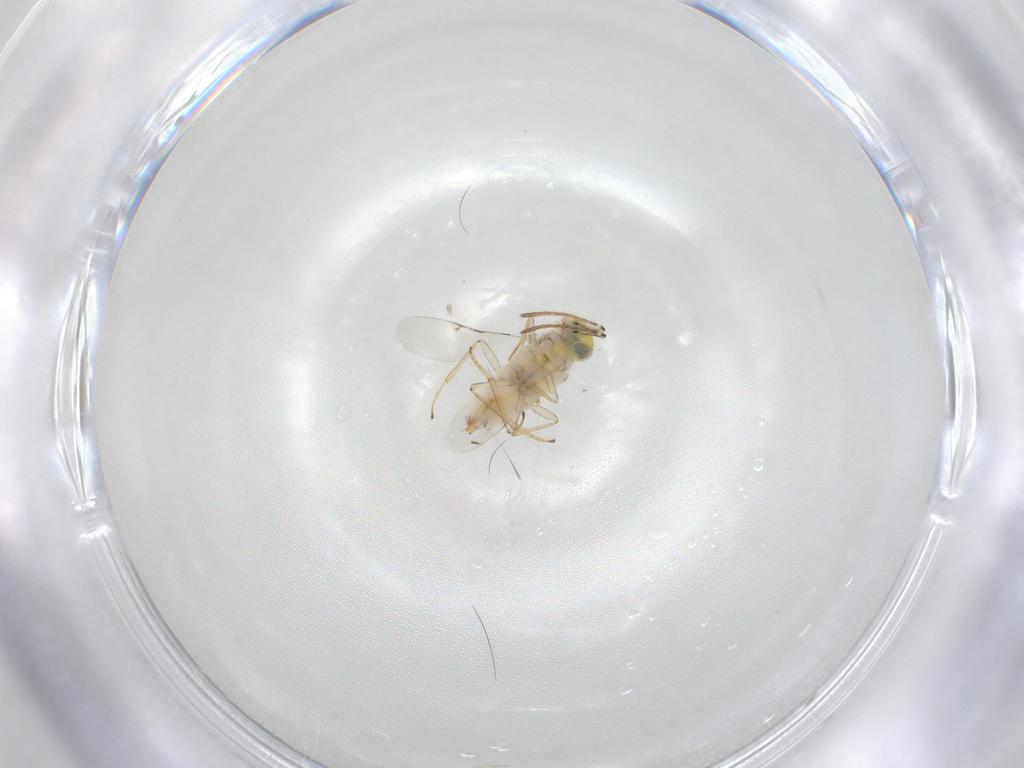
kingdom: Animalia
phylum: Arthropoda
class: Insecta
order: Hymenoptera
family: Encyrtidae
